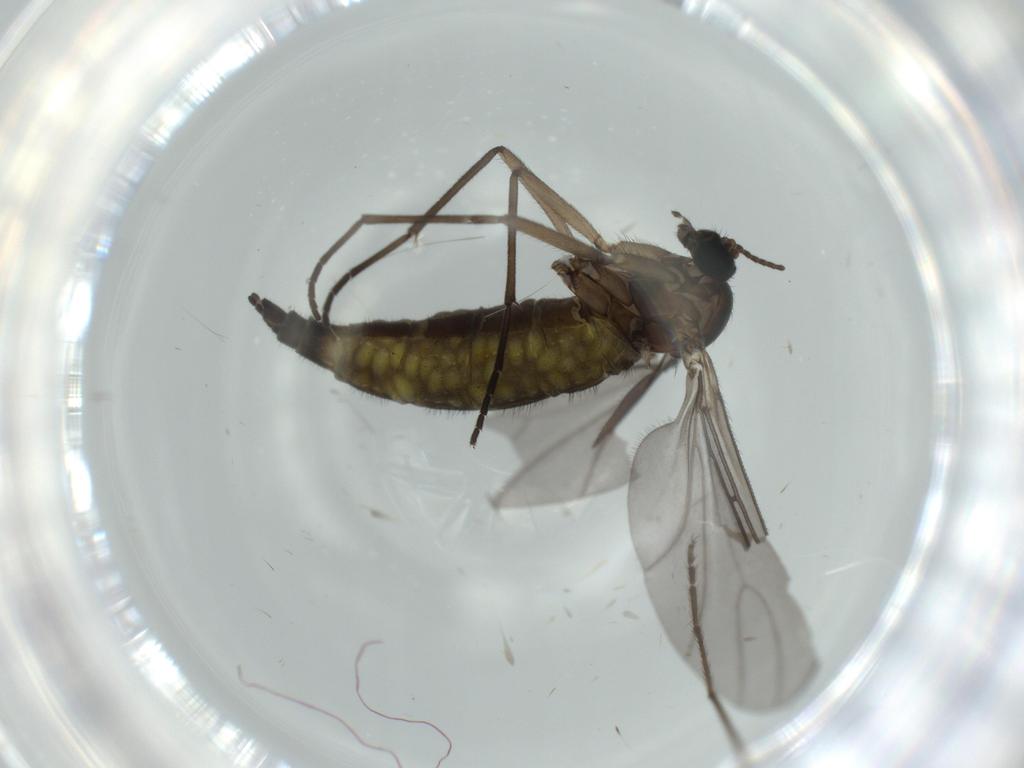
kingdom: Animalia
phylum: Arthropoda
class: Insecta
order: Diptera
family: Sciaridae
